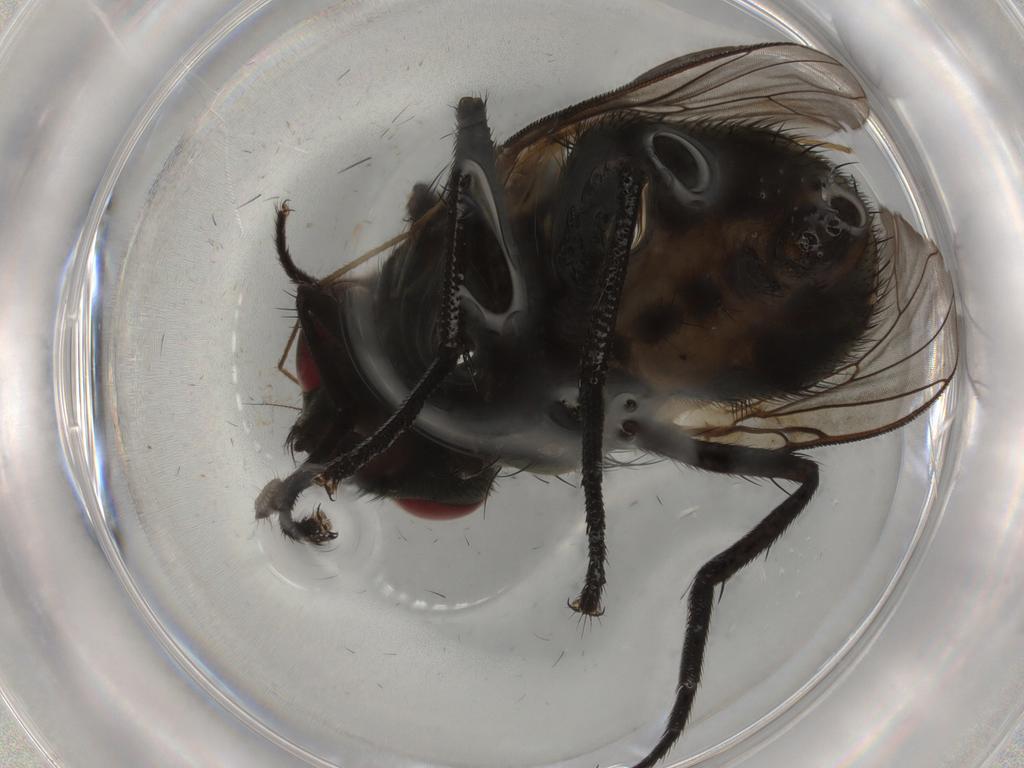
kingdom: Animalia
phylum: Arthropoda
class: Insecta
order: Diptera
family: Muscidae
